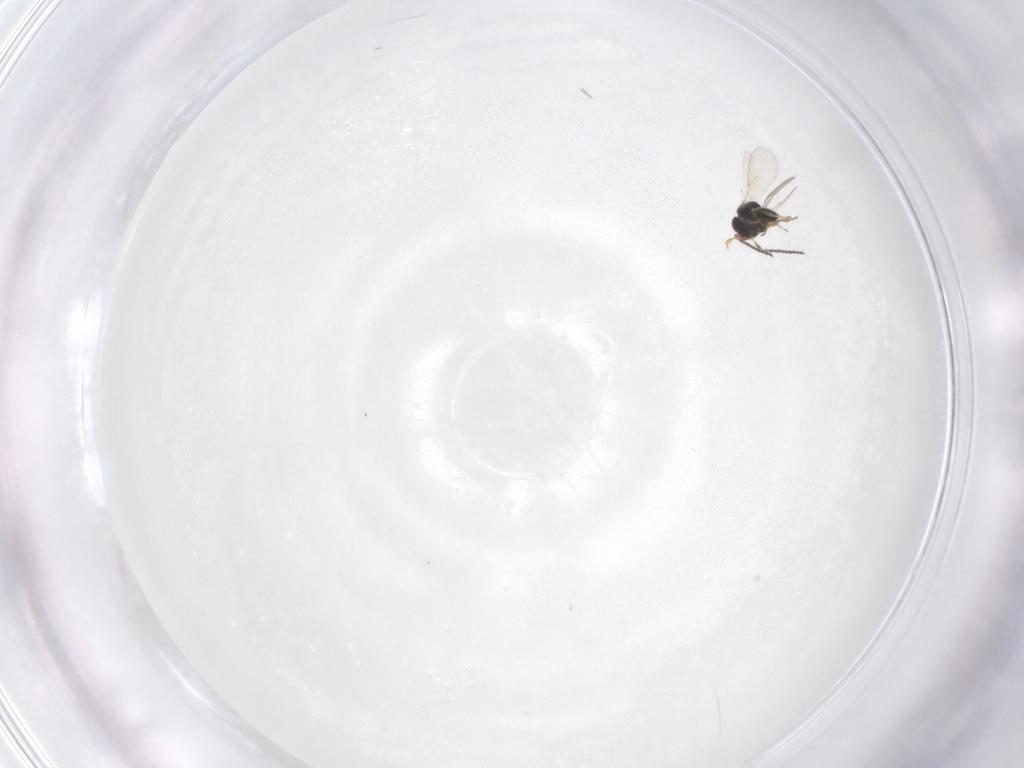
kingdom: Animalia
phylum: Arthropoda
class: Insecta
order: Hymenoptera
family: Scelionidae
